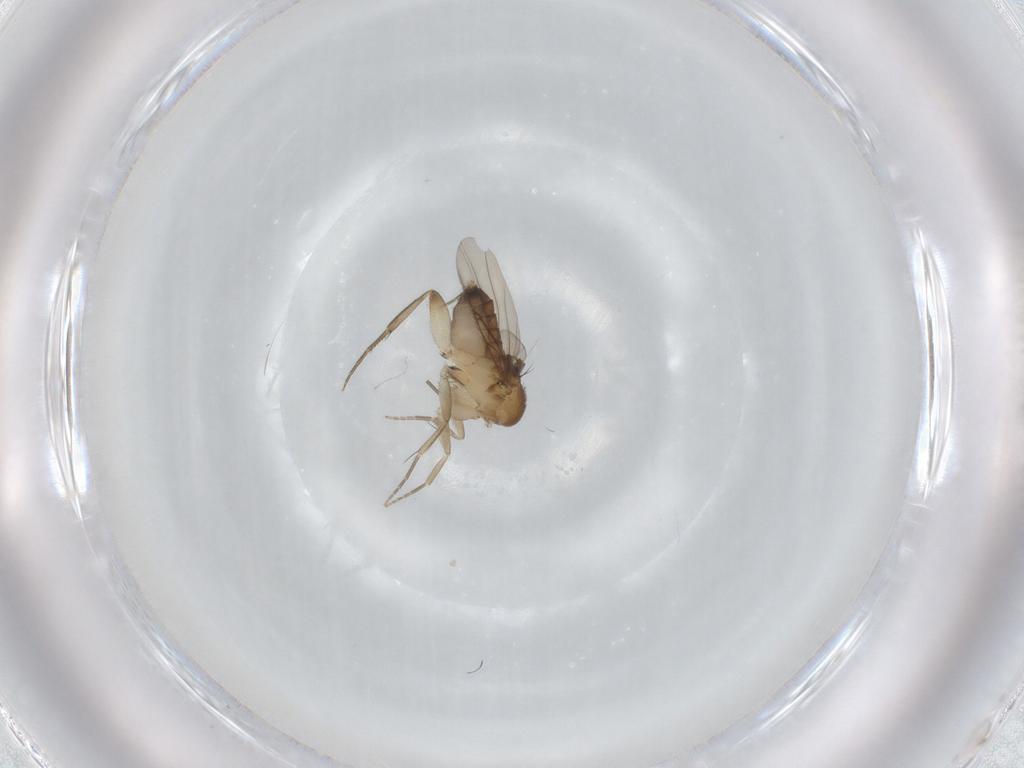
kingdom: Animalia
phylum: Arthropoda
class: Insecta
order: Diptera
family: Phoridae
